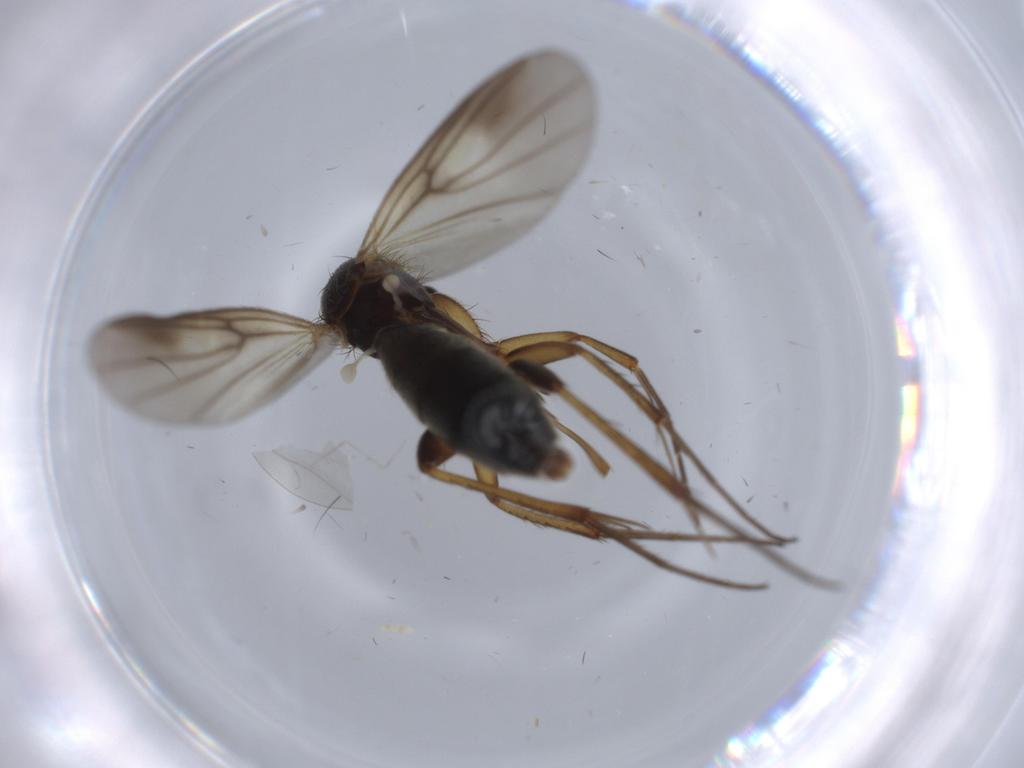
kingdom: Animalia
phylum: Arthropoda
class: Insecta
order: Diptera
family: Cecidomyiidae
